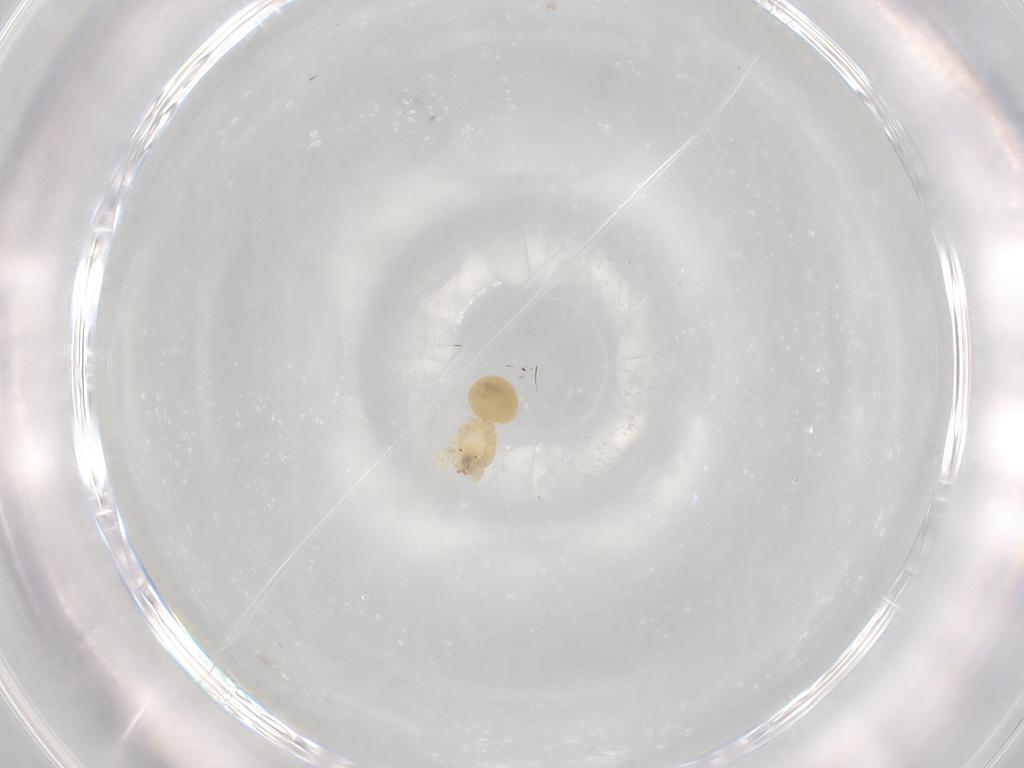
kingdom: Animalia
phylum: Arthropoda
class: Arachnida
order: Araneae
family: Oonopidae
